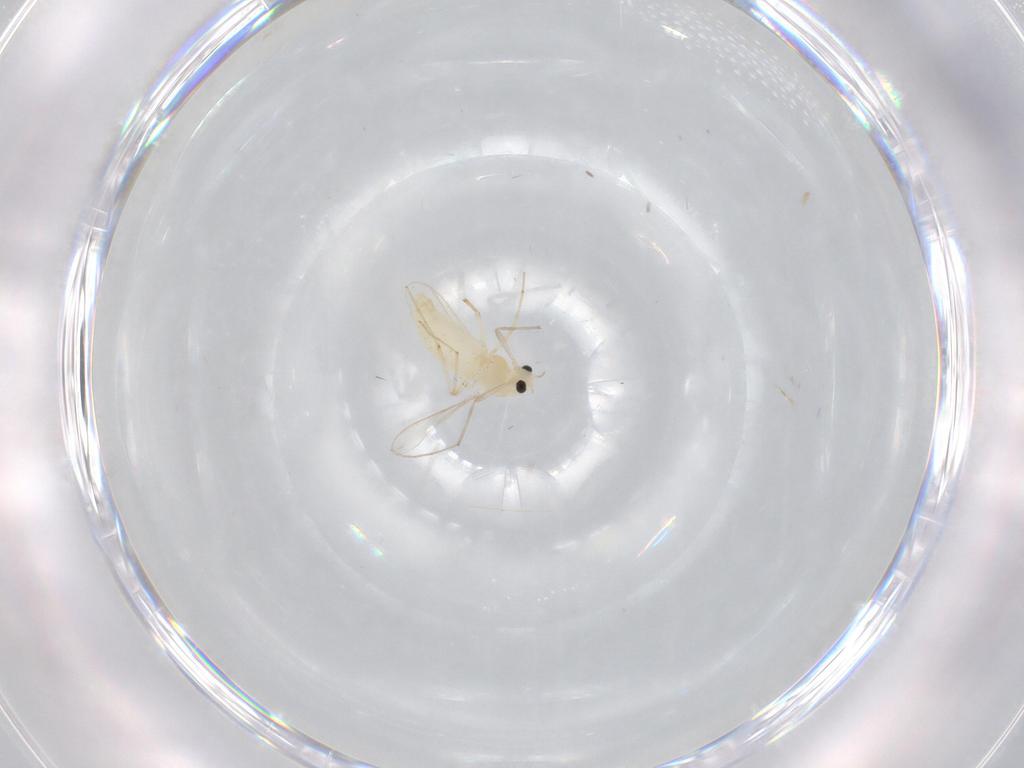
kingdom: Animalia
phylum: Arthropoda
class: Insecta
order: Diptera
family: Chironomidae
